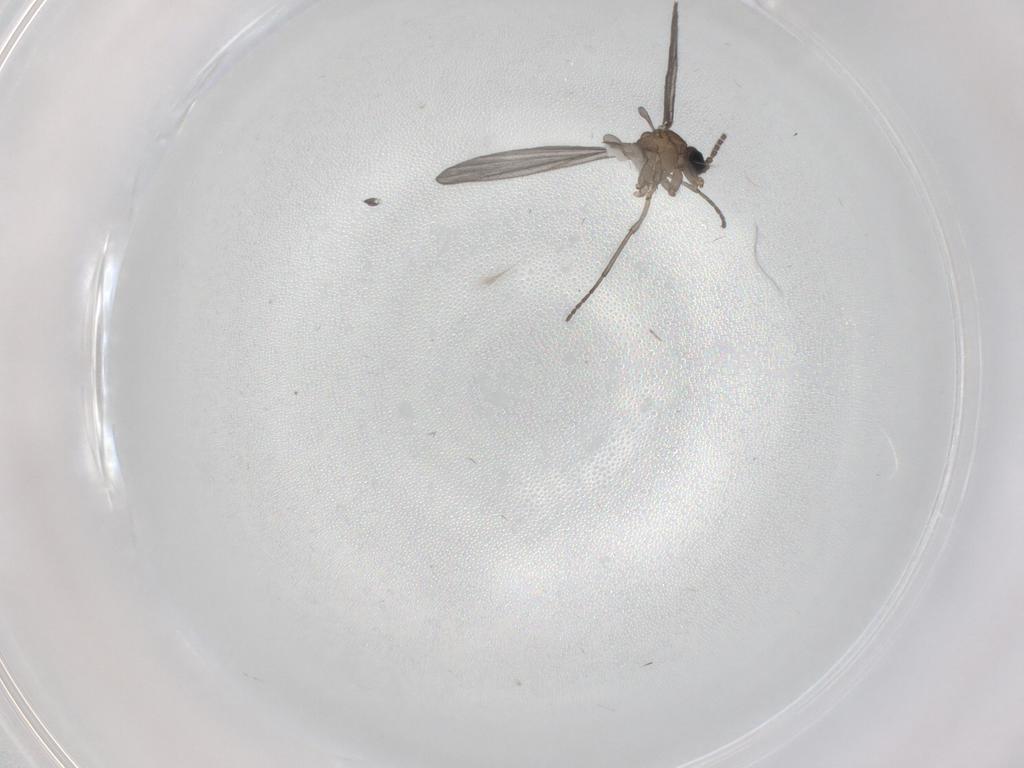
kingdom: Animalia
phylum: Arthropoda
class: Insecta
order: Diptera
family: Sciaridae
